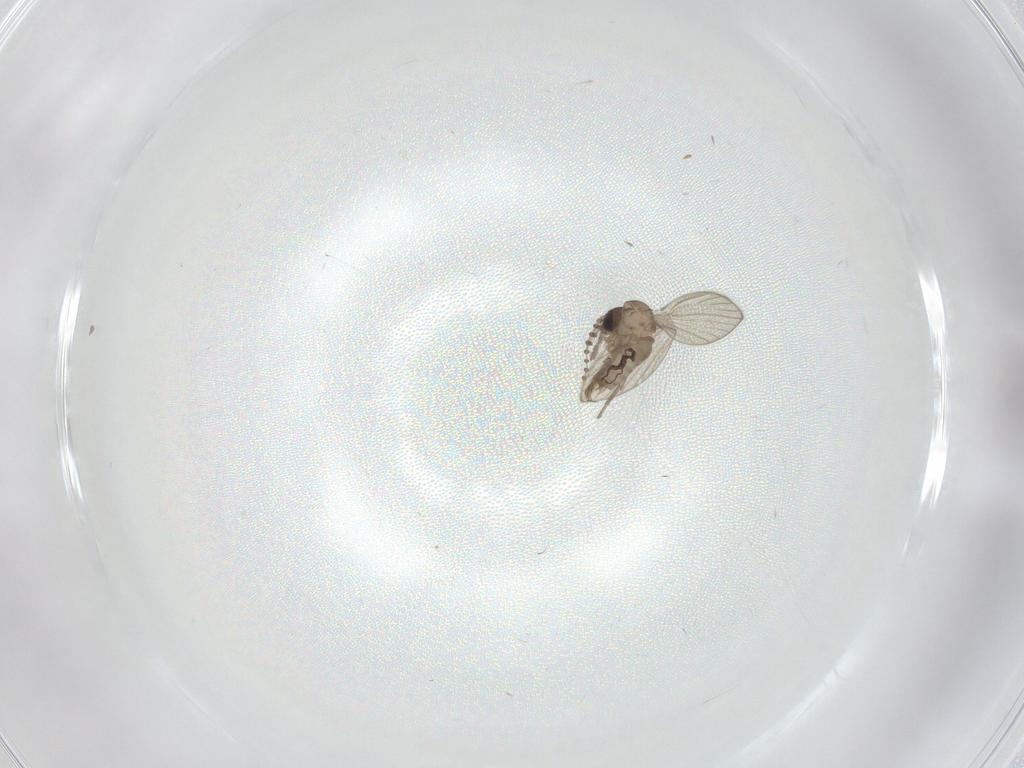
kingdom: Animalia
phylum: Arthropoda
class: Insecta
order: Diptera
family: Psychodidae
